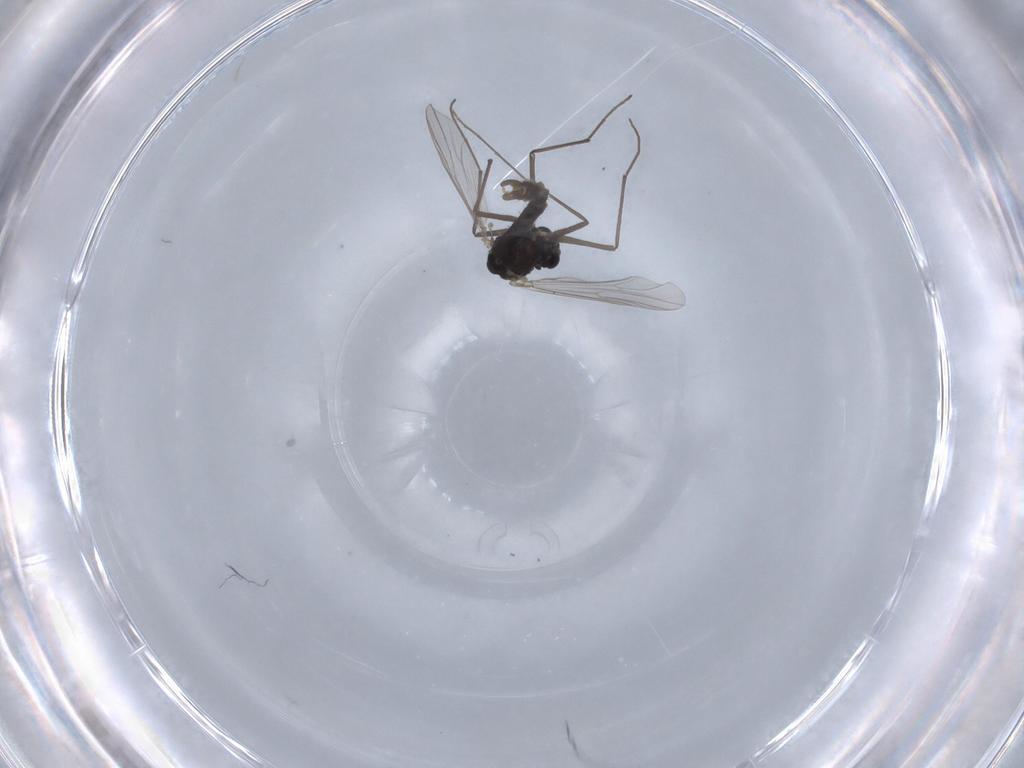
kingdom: Animalia
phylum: Arthropoda
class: Insecta
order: Diptera
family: Chironomidae
